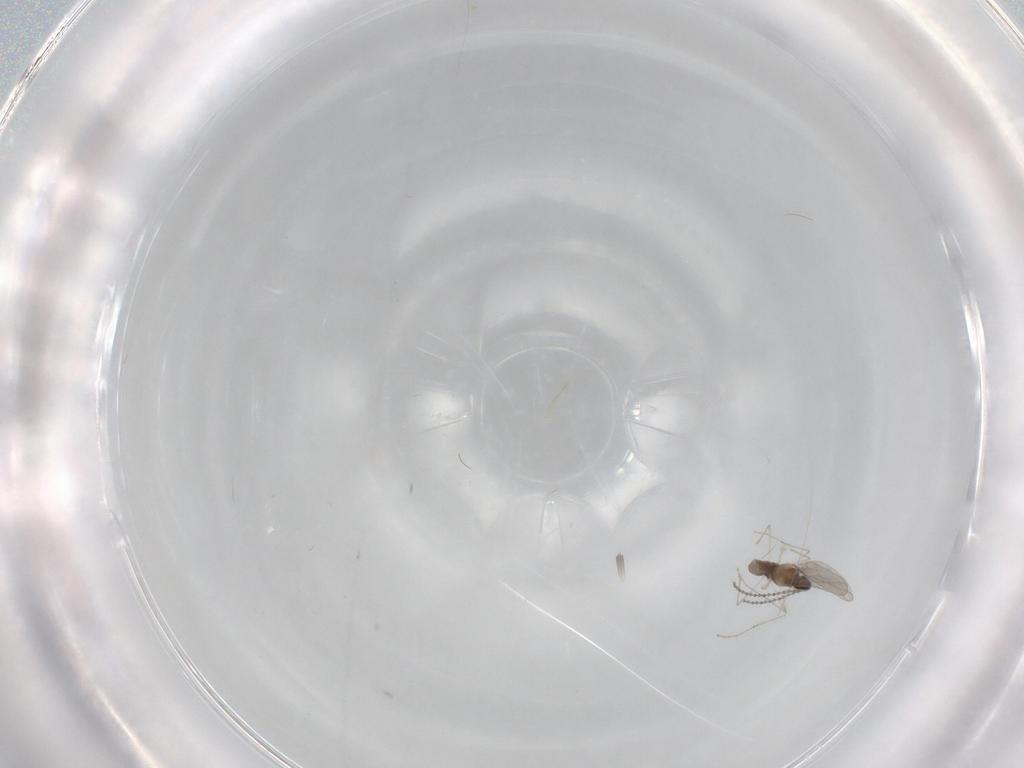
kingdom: Animalia
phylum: Arthropoda
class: Insecta
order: Diptera
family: Cecidomyiidae
